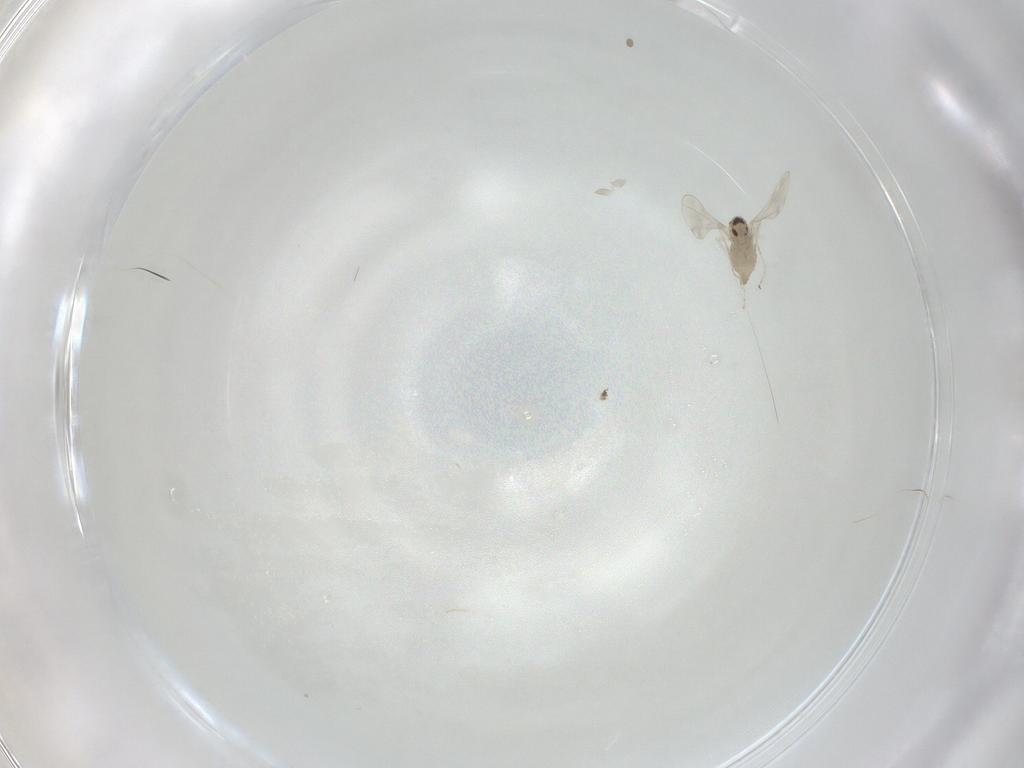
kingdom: Animalia
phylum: Arthropoda
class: Insecta
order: Diptera
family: Cecidomyiidae
